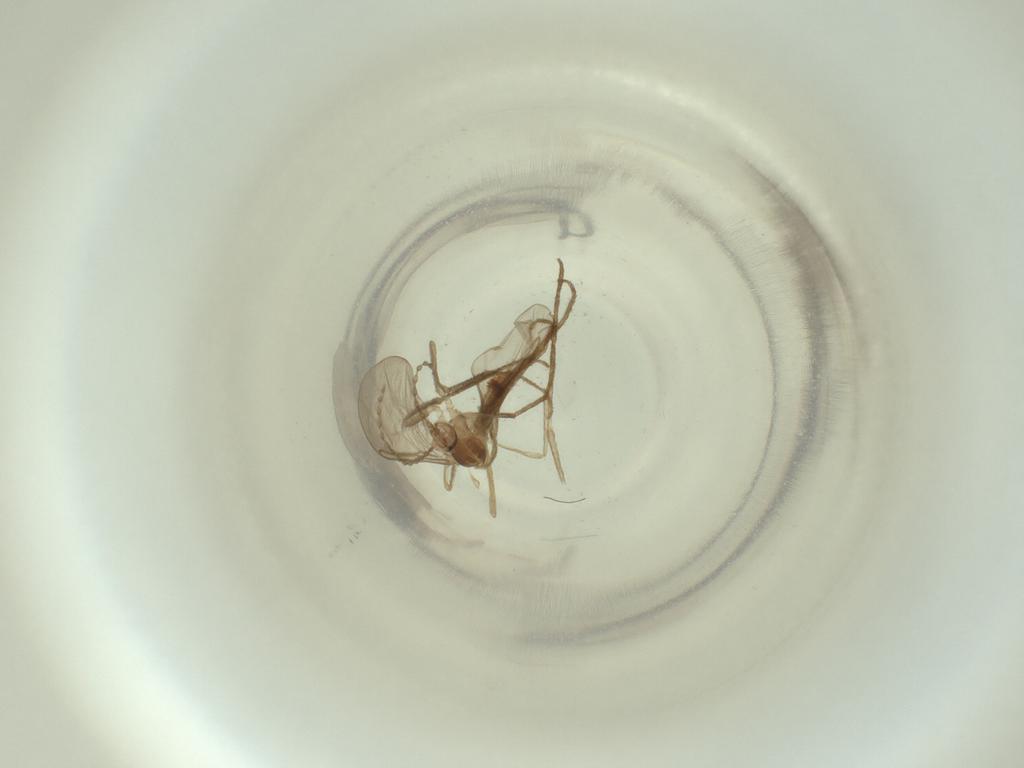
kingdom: Animalia
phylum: Arthropoda
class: Insecta
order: Diptera
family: Cecidomyiidae
